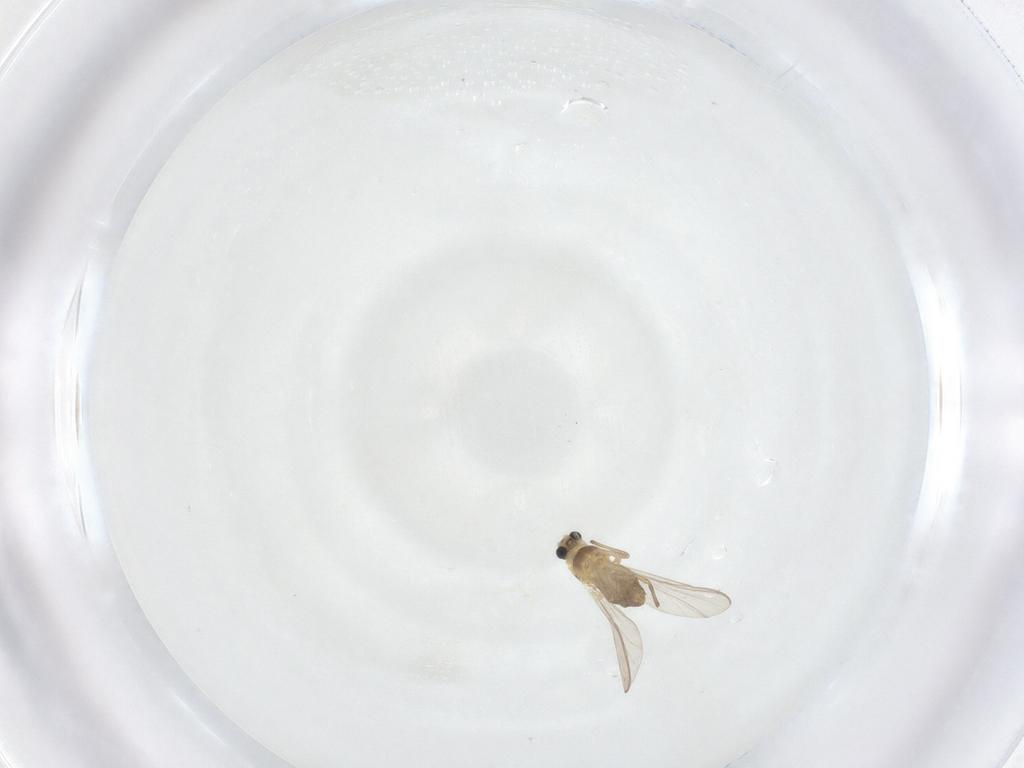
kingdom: Animalia
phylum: Arthropoda
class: Insecta
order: Diptera
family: Chironomidae
